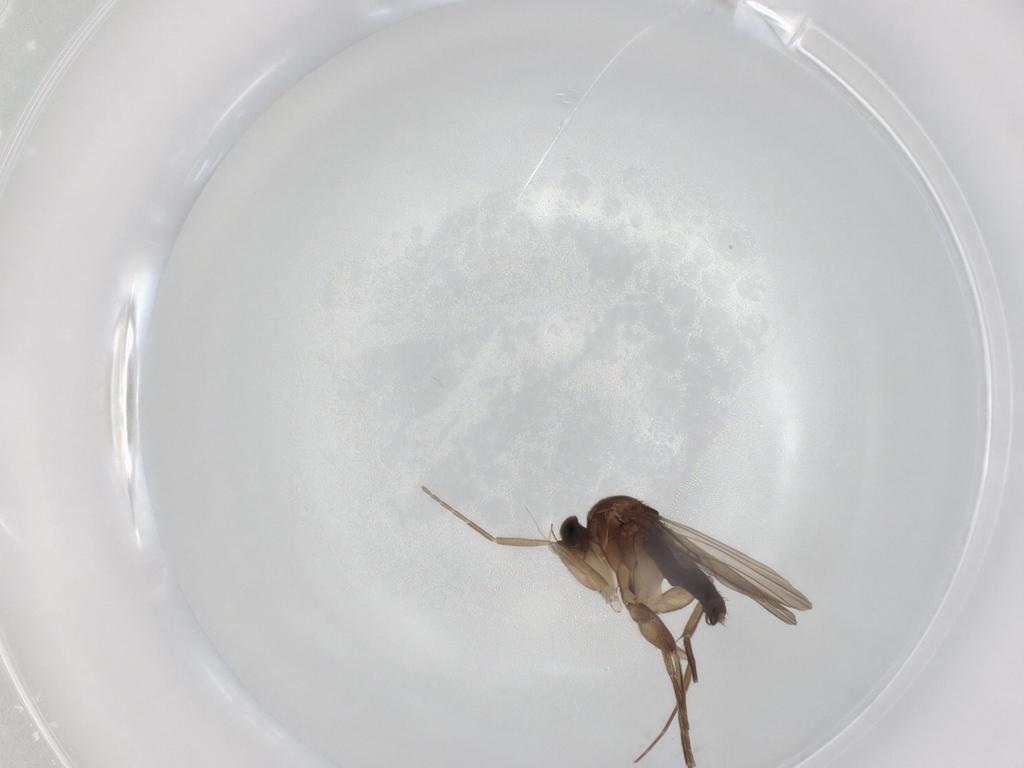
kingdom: Animalia
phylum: Arthropoda
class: Insecta
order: Diptera
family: Phoridae
